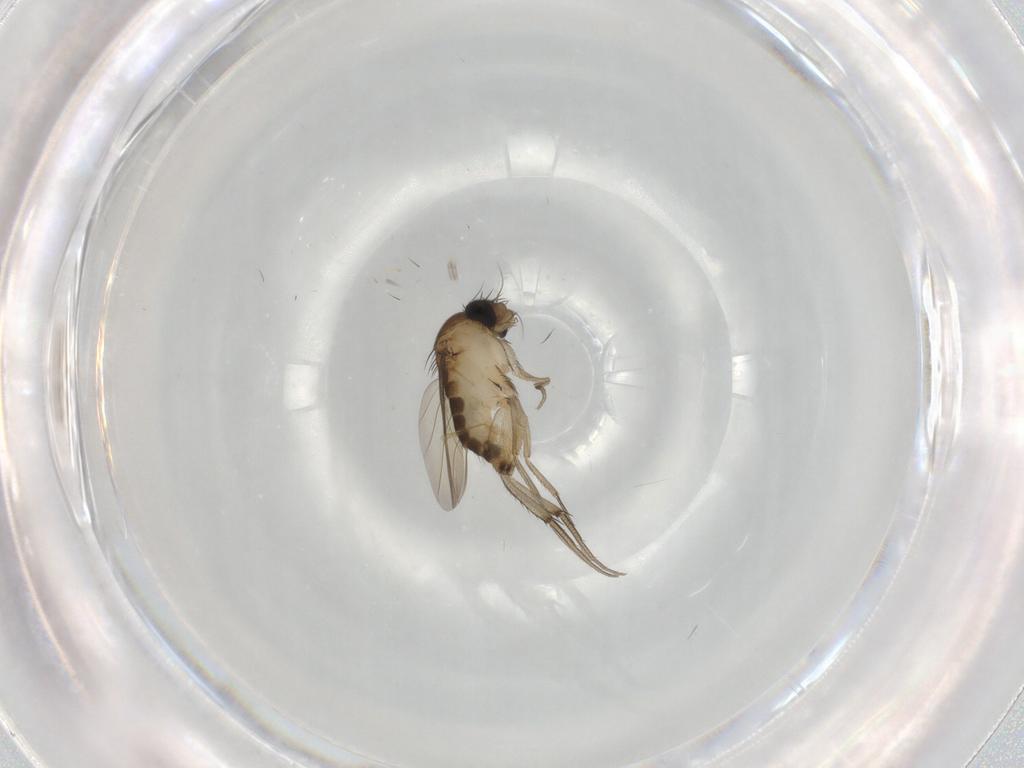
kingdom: Animalia
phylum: Arthropoda
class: Insecta
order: Diptera
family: Phoridae
